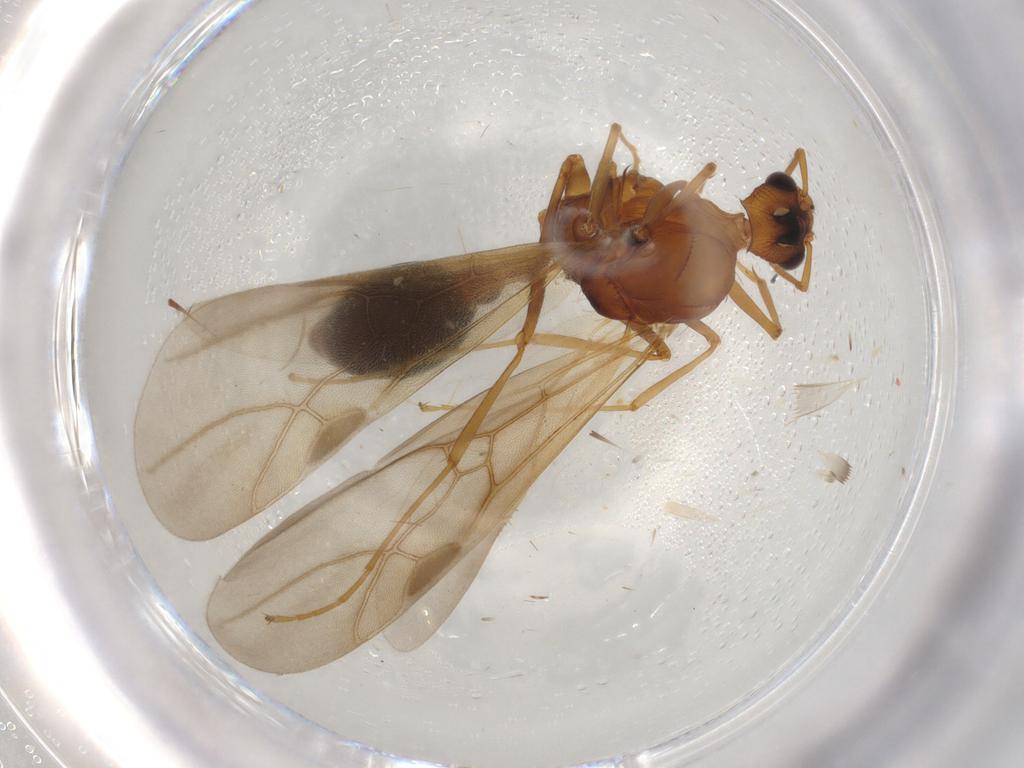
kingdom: Animalia
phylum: Arthropoda
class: Insecta
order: Hymenoptera
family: Formicidae
